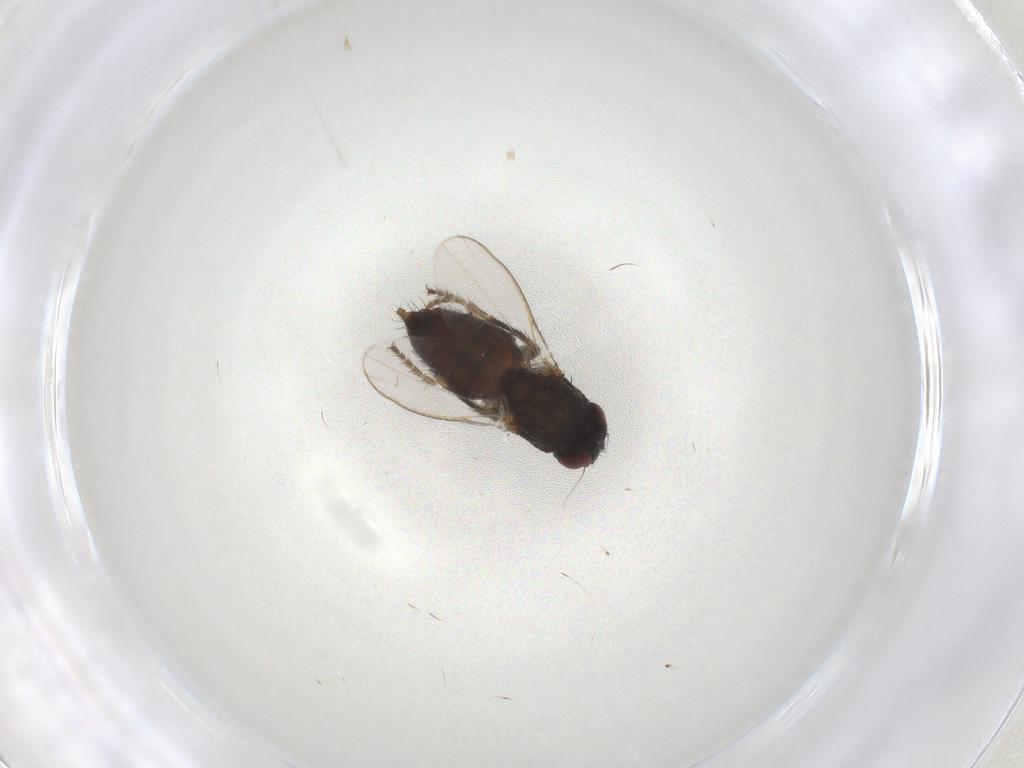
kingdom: Animalia
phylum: Arthropoda
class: Insecta
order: Diptera
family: Milichiidae
